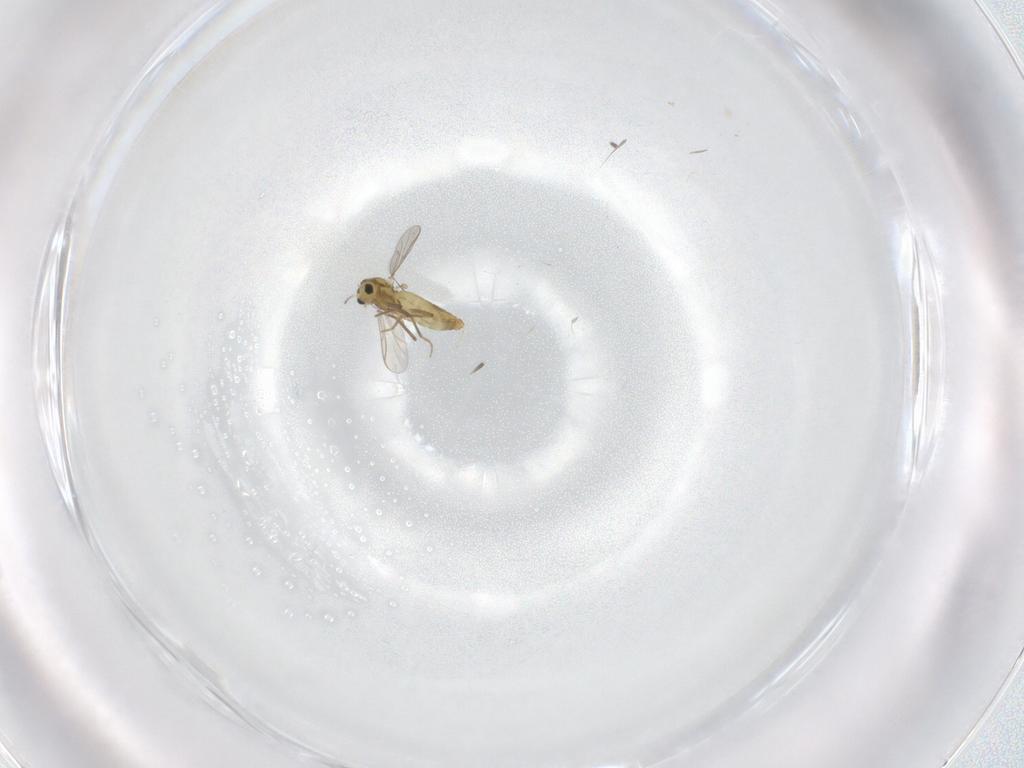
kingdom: Animalia
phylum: Arthropoda
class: Insecta
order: Diptera
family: Chironomidae
